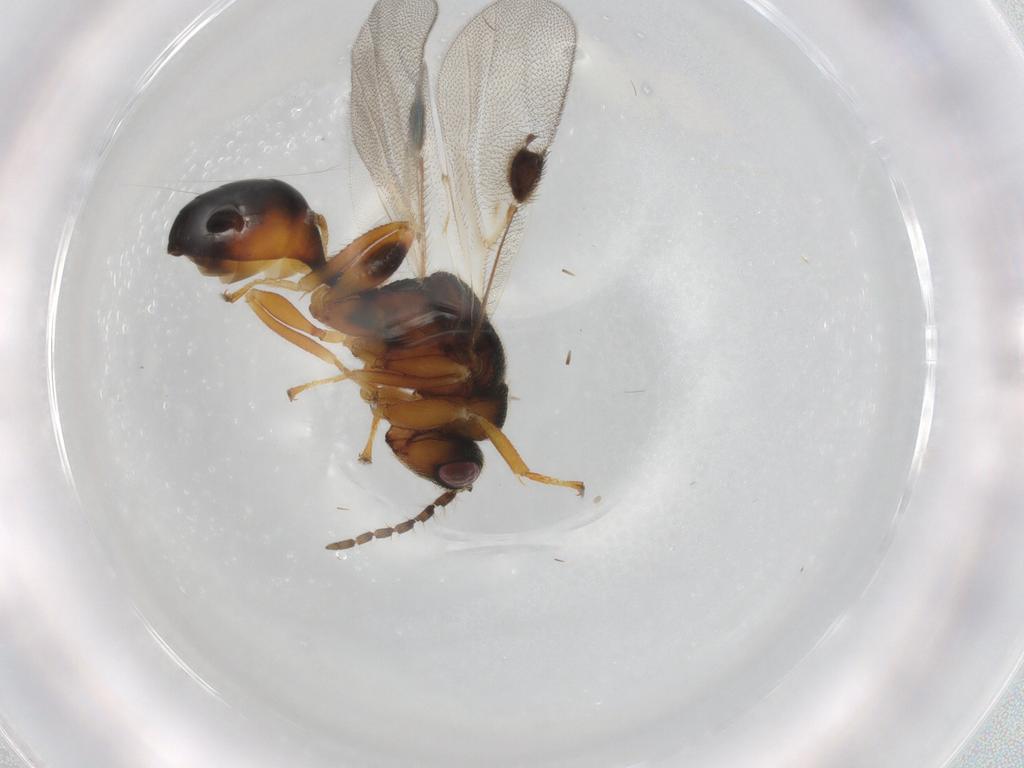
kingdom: Animalia
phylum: Arthropoda
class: Insecta
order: Hymenoptera
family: Eurytomidae
